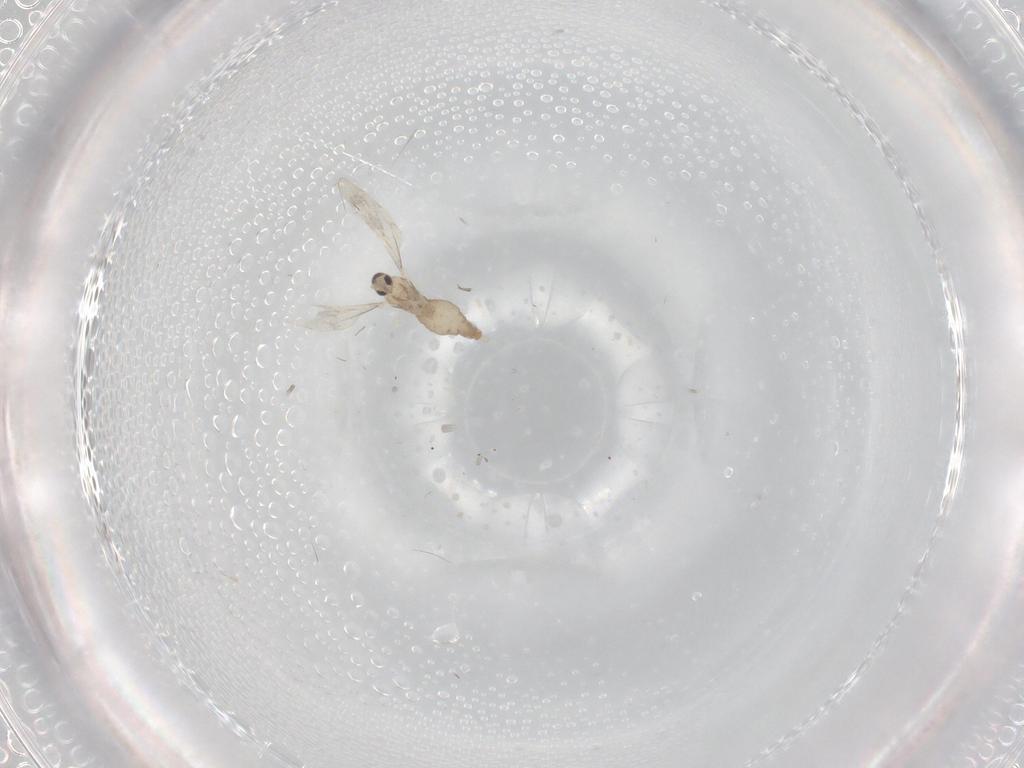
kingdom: Animalia
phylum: Arthropoda
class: Insecta
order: Diptera
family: Cecidomyiidae
